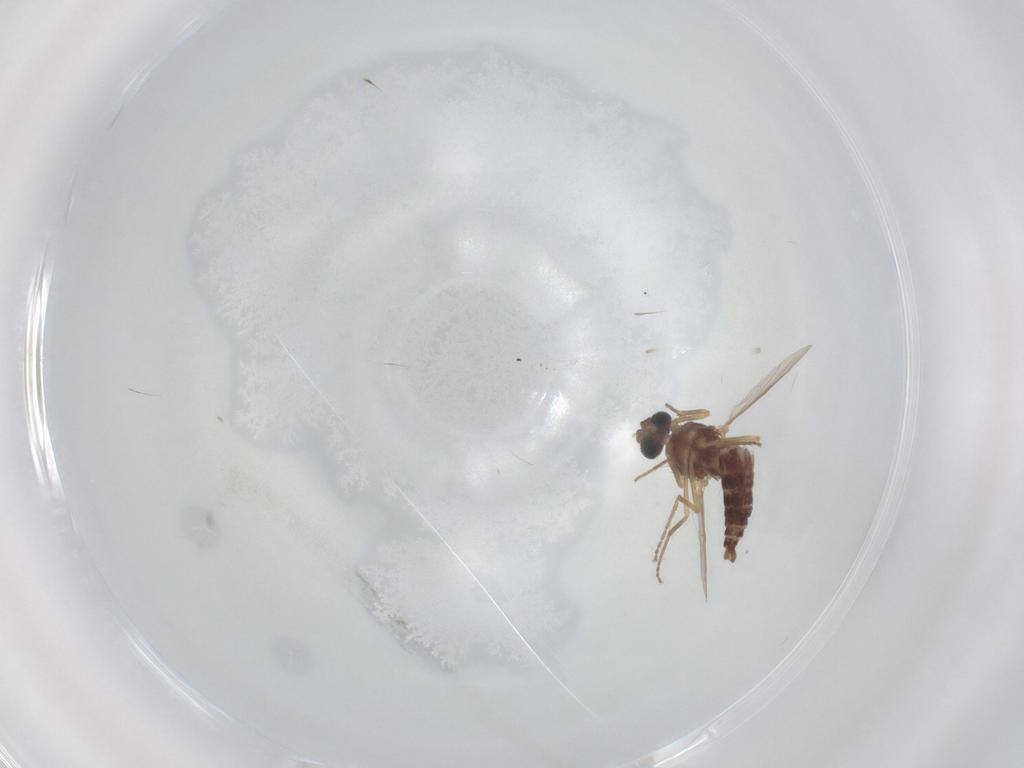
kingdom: Animalia
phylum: Arthropoda
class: Insecta
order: Diptera
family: Ceratopogonidae
